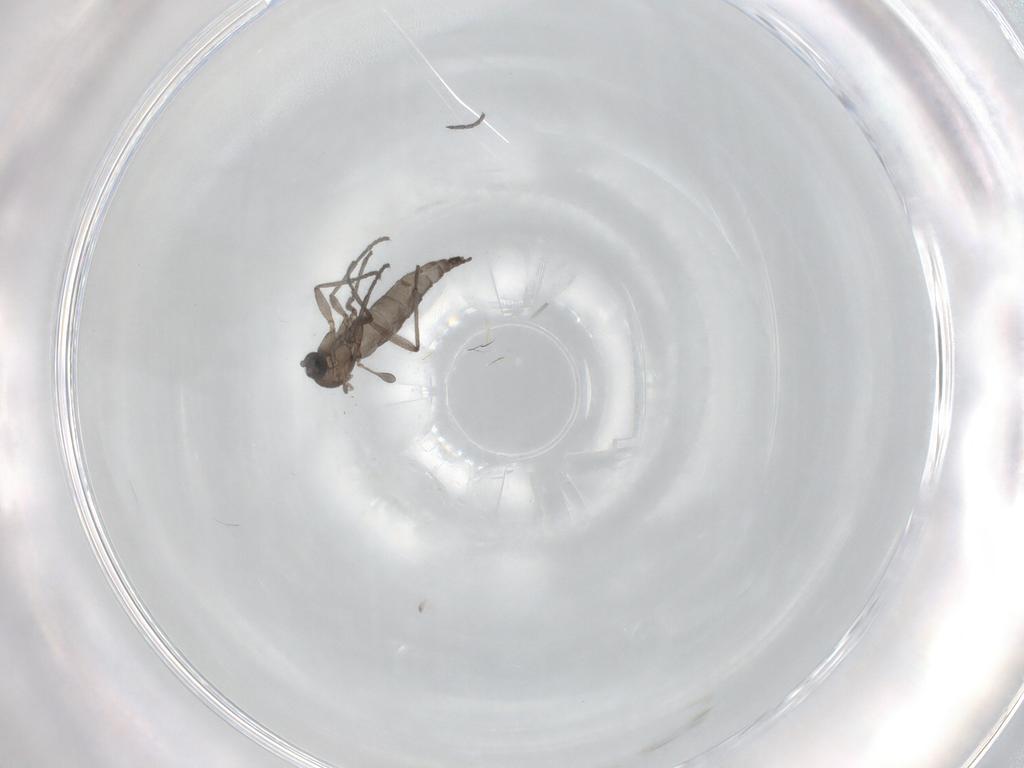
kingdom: Animalia
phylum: Arthropoda
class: Insecta
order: Diptera
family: Sciaridae
